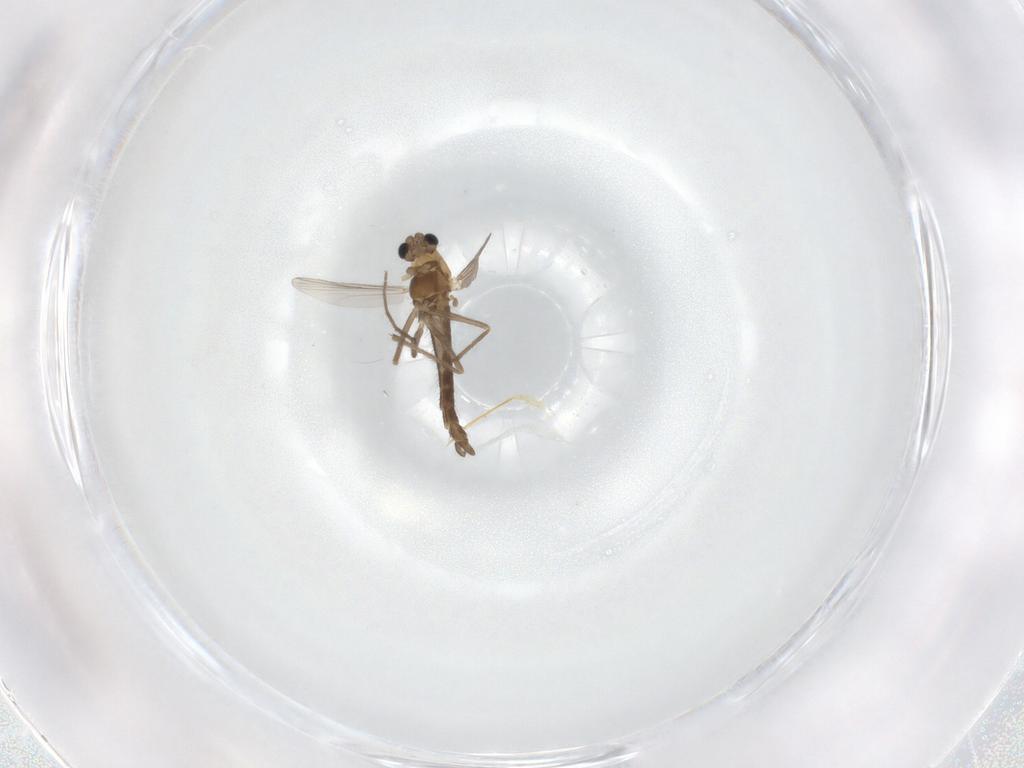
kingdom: Animalia
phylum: Arthropoda
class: Insecta
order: Diptera
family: Chironomidae
